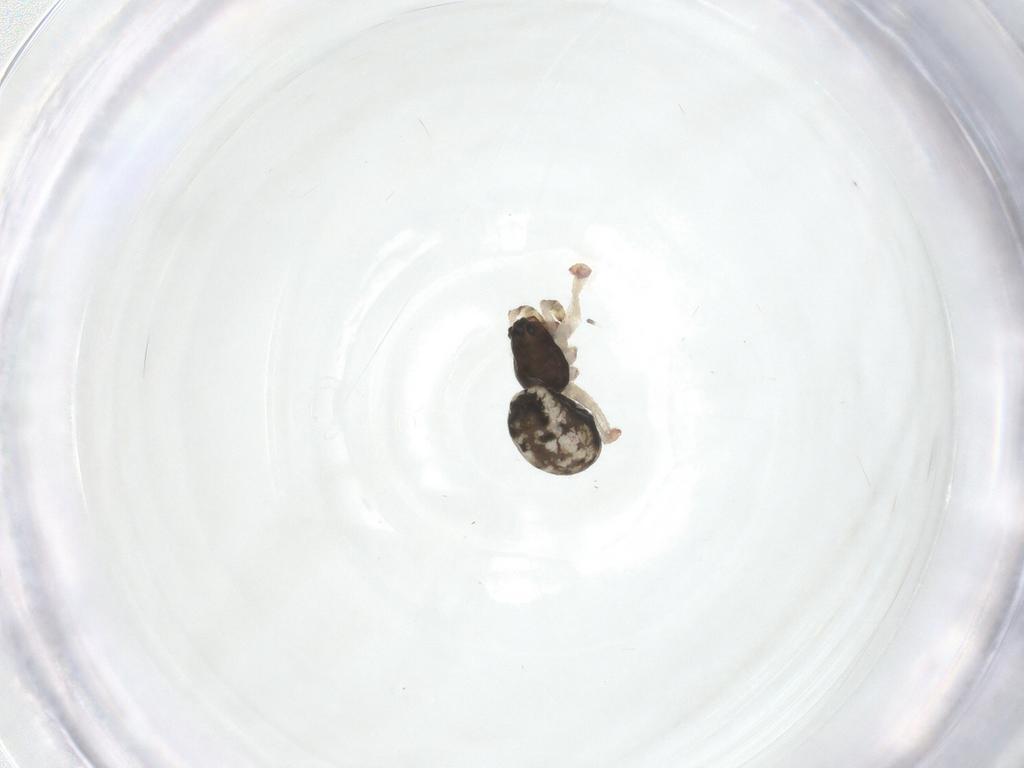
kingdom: Animalia
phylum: Arthropoda
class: Arachnida
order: Araneae
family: Linyphiidae
